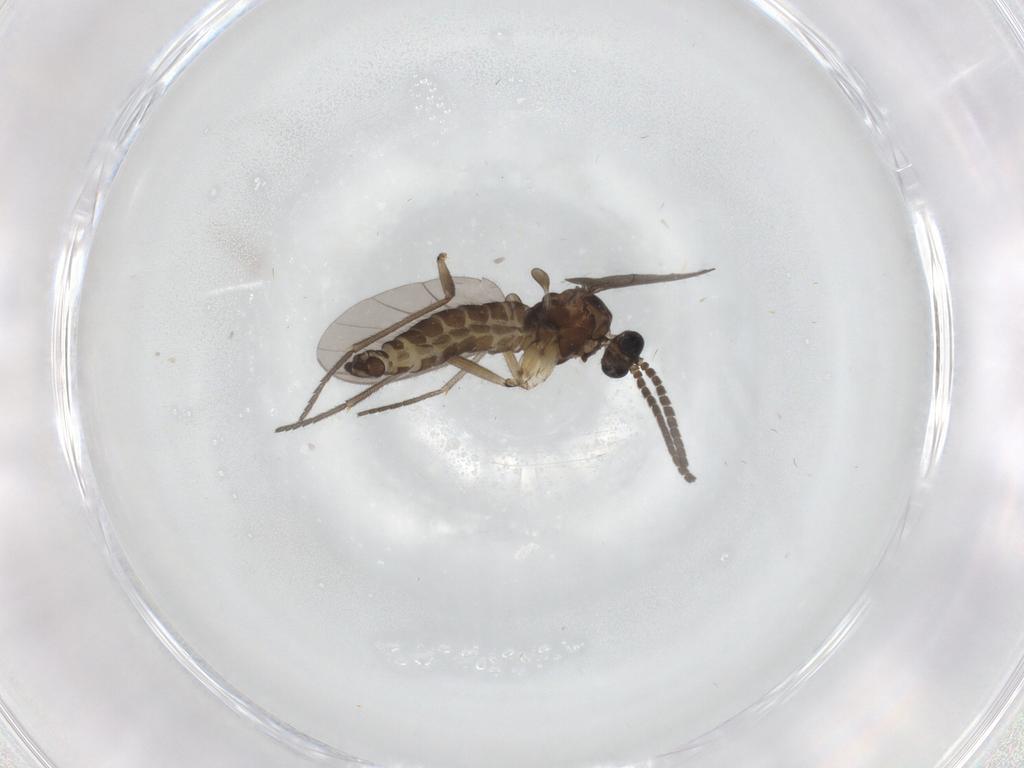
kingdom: Animalia
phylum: Arthropoda
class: Insecta
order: Diptera
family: Sciaridae
